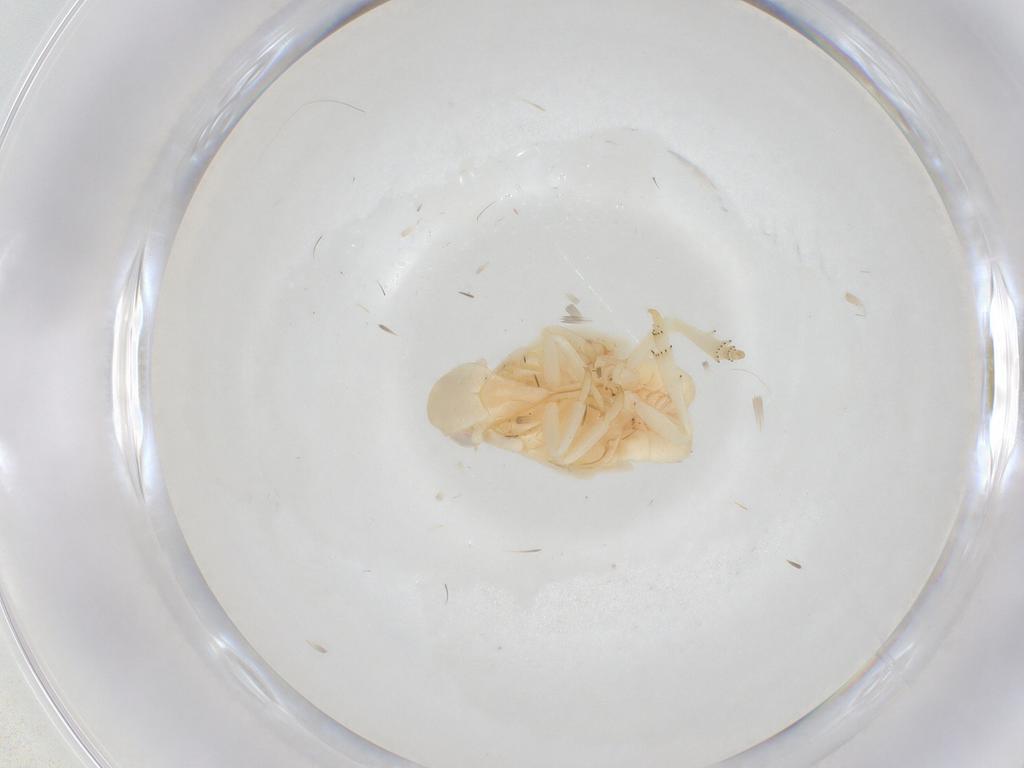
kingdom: Animalia
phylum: Arthropoda
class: Insecta
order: Hemiptera
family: Flatidae
